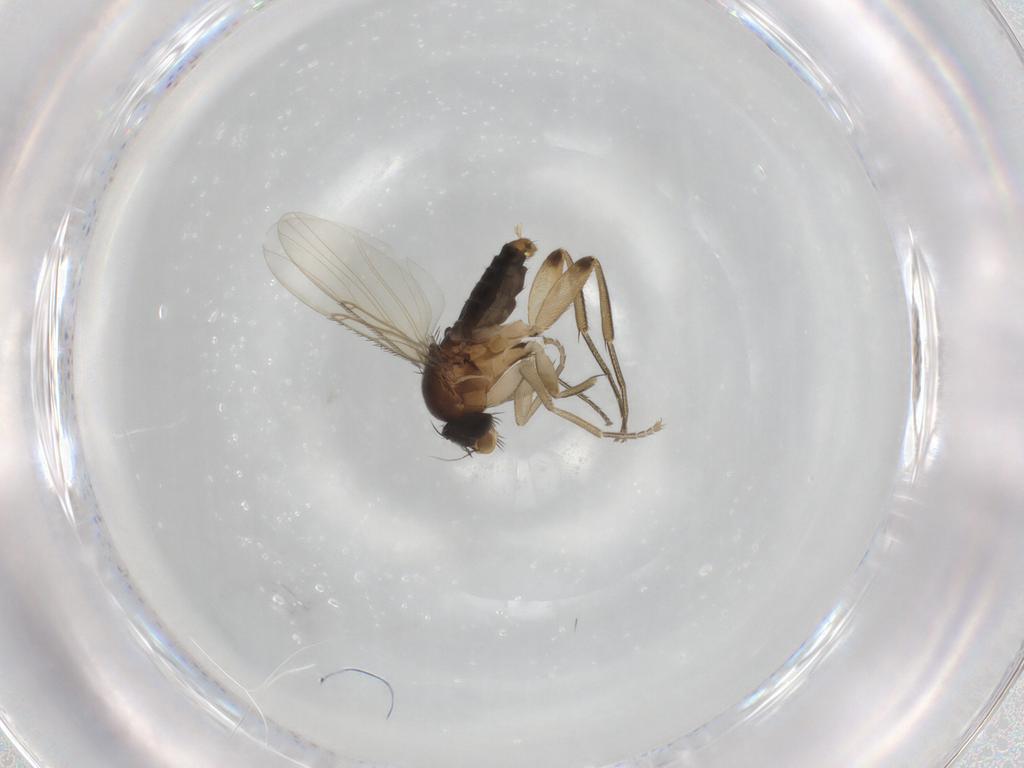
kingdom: Animalia
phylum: Arthropoda
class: Insecta
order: Diptera
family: Phoridae
